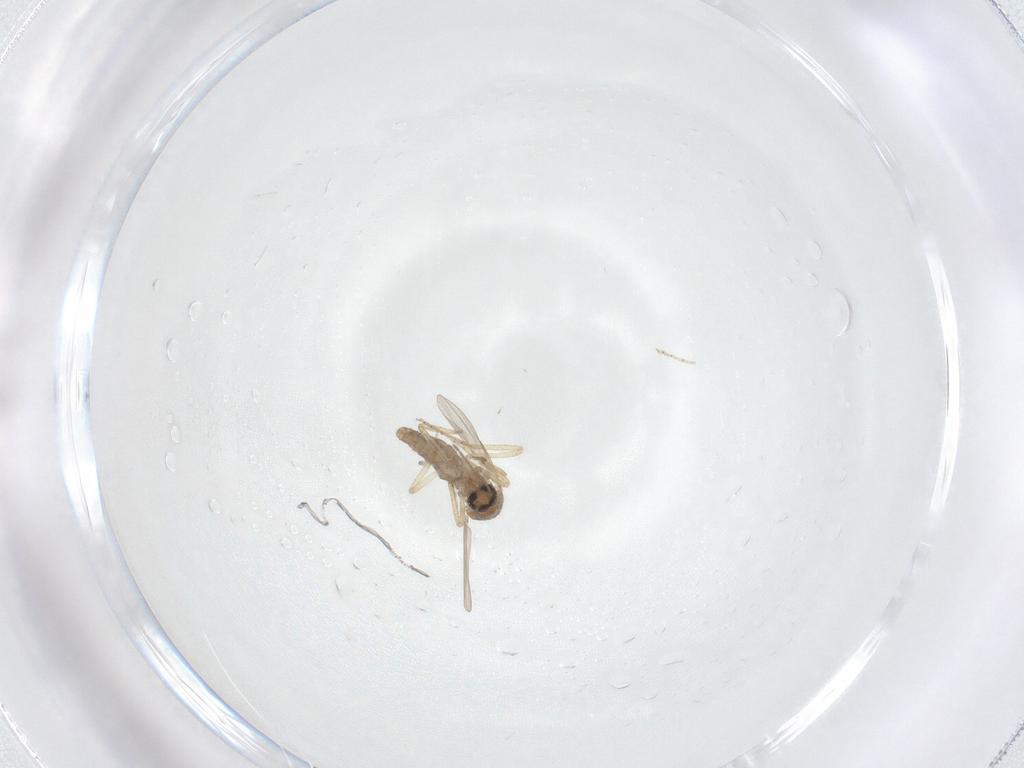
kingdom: Animalia
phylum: Arthropoda
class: Insecta
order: Diptera
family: Ceratopogonidae
